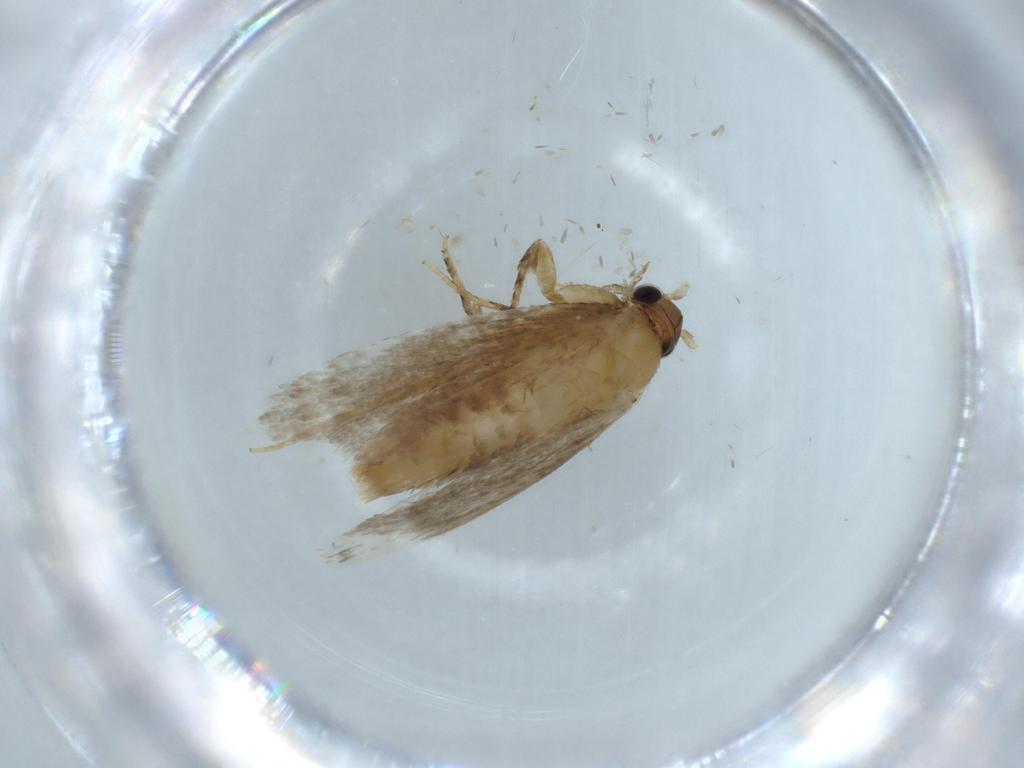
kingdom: Animalia
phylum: Arthropoda
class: Insecta
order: Lepidoptera
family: Tineidae
